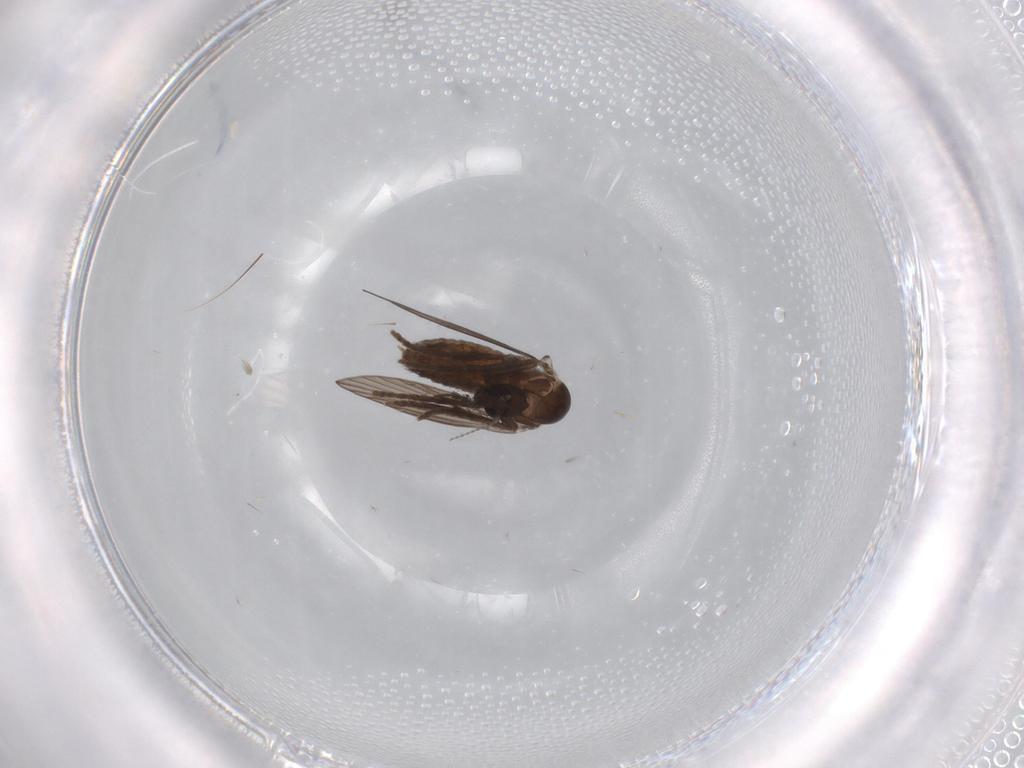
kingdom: Animalia
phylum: Arthropoda
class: Insecta
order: Diptera
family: Psychodidae
